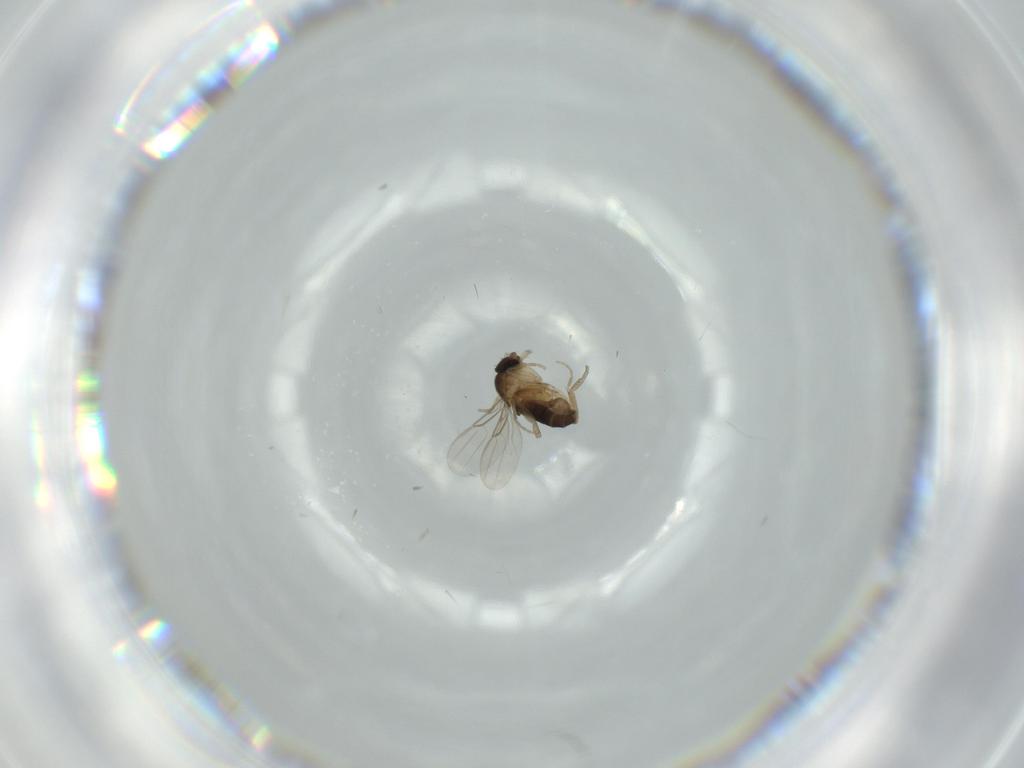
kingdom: Animalia
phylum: Arthropoda
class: Insecta
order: Diptera
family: Phoridae
